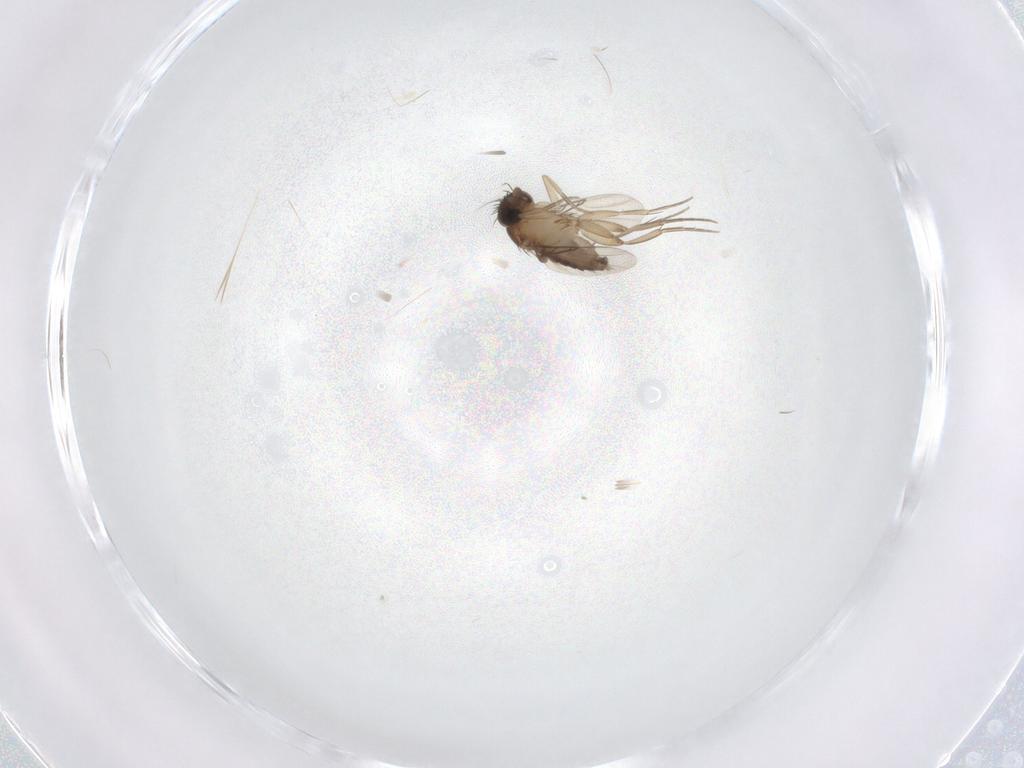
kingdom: Animalia
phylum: Arthropoda
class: Insecta
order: Diptera
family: Phoridae
